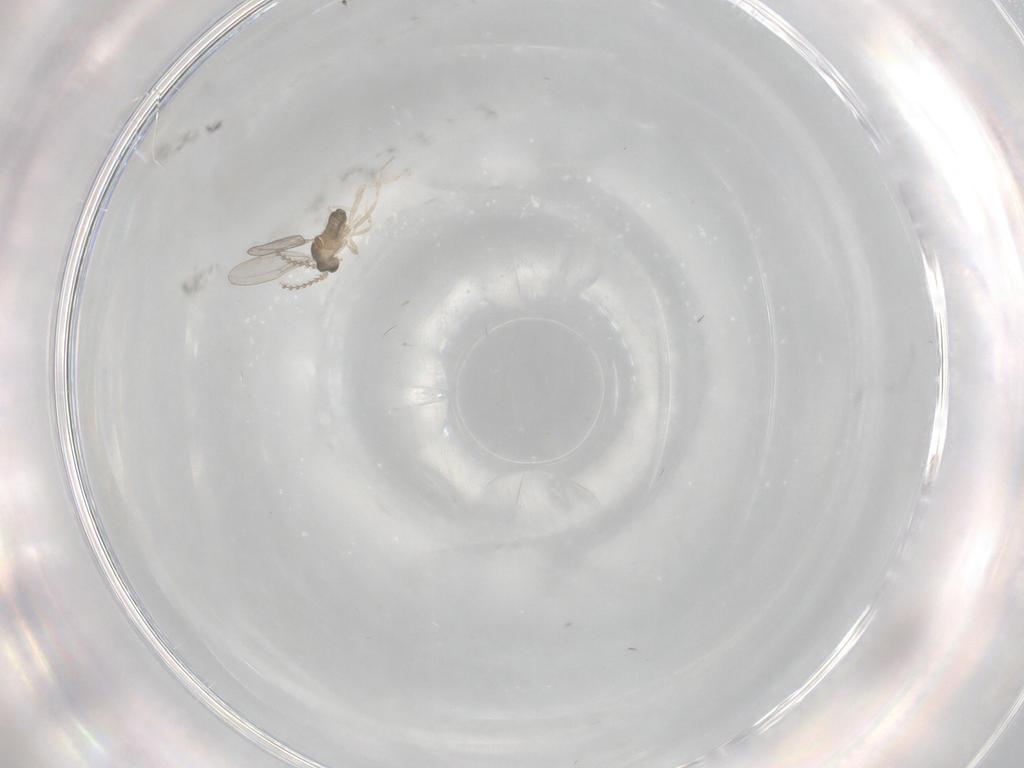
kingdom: Animalia
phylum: Arthropoda
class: Insecta
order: Diptera
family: Cecidomyiidae
